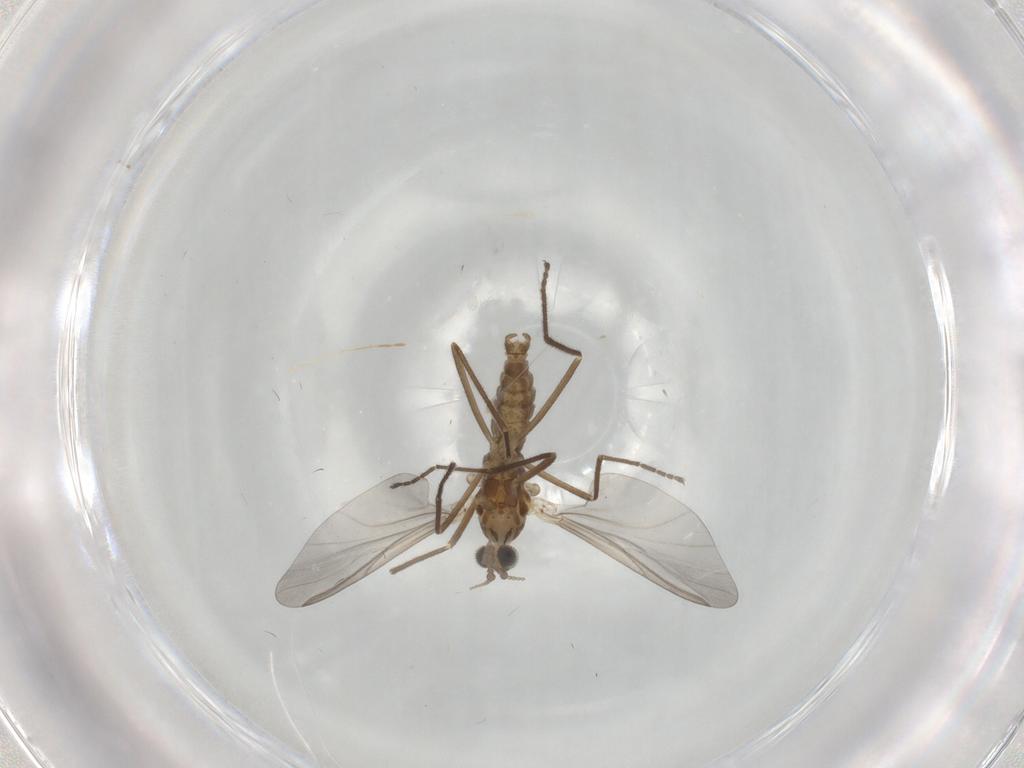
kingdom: Animalia
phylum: Arthropoda
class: Insecta
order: Diptera
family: Cecidomyiidae
